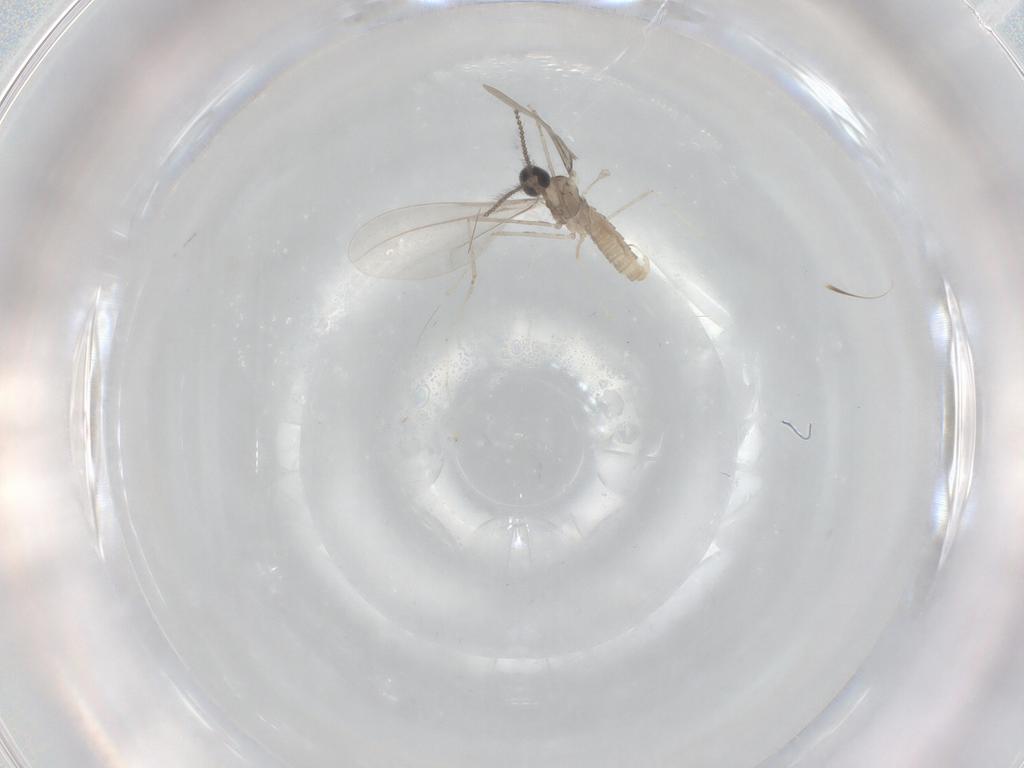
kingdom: Animalia
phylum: Arthropoda
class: Insecta
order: Diptera
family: Cecidomyiidae
